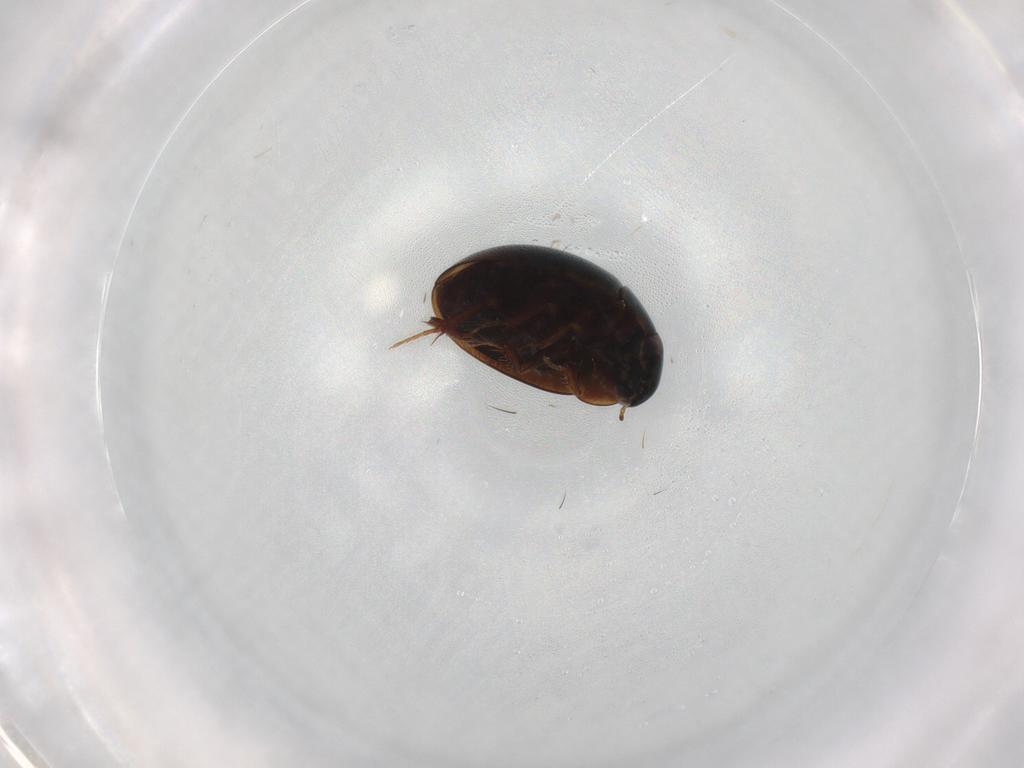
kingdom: Animalia
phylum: Arthropoda
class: Insecta
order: Coleoptera
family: Hydrophilidae
